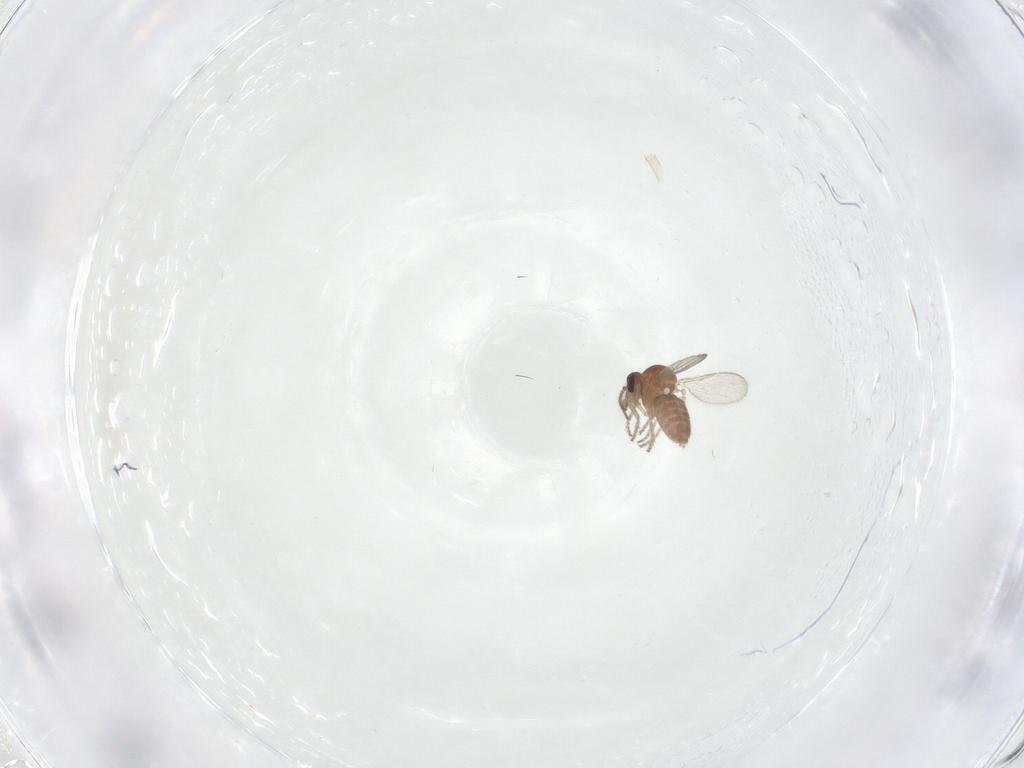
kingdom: Animalia
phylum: Arthropoda
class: Insecta
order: Diptera
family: Ceratopogonidae
